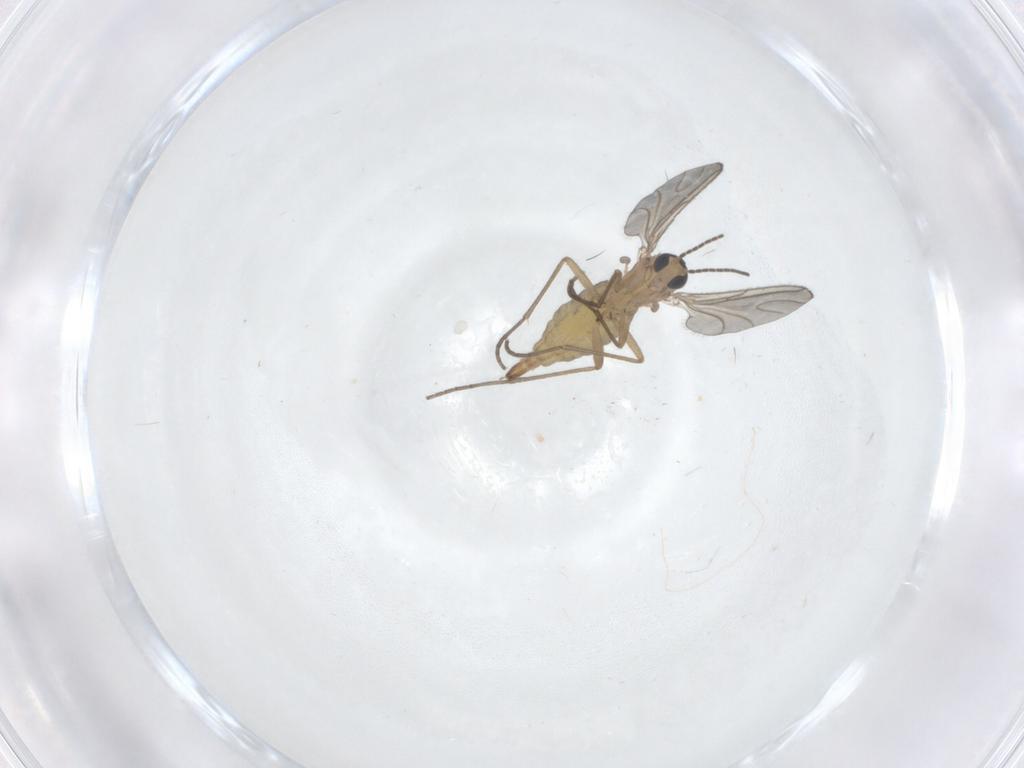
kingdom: Animalia
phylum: Arthropoda
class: Insecta
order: Diptera
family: Sciaridae
